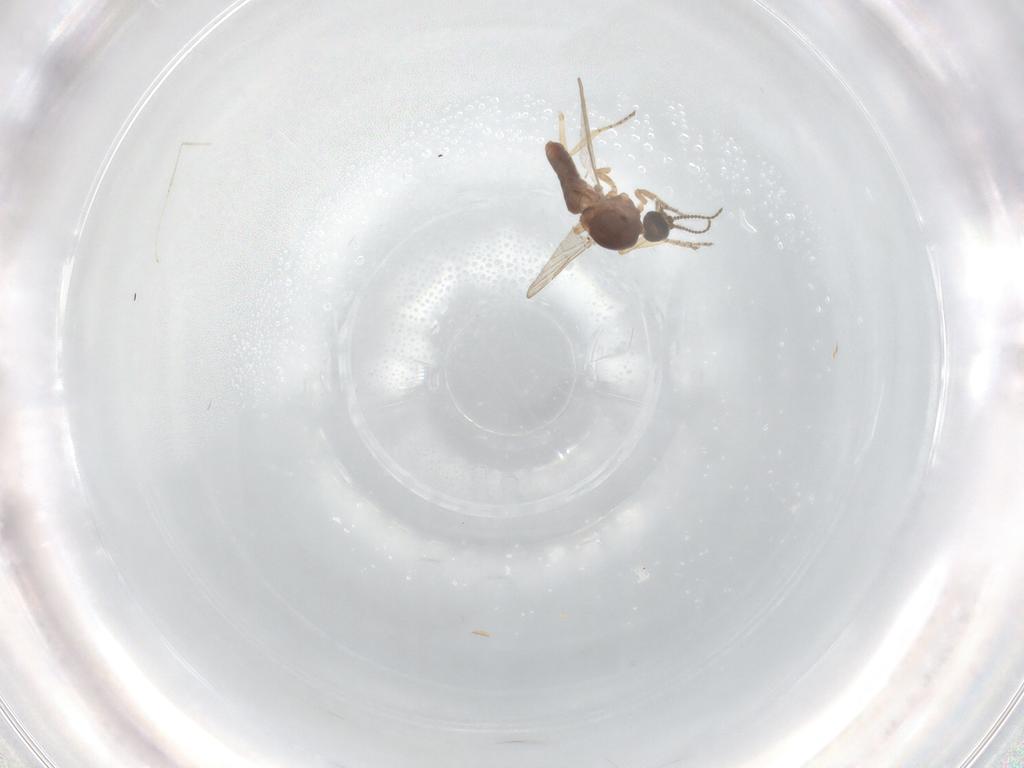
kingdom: Animalia
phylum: Arthropoda
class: Insecta
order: Diptera
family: Ceratopogonidae
